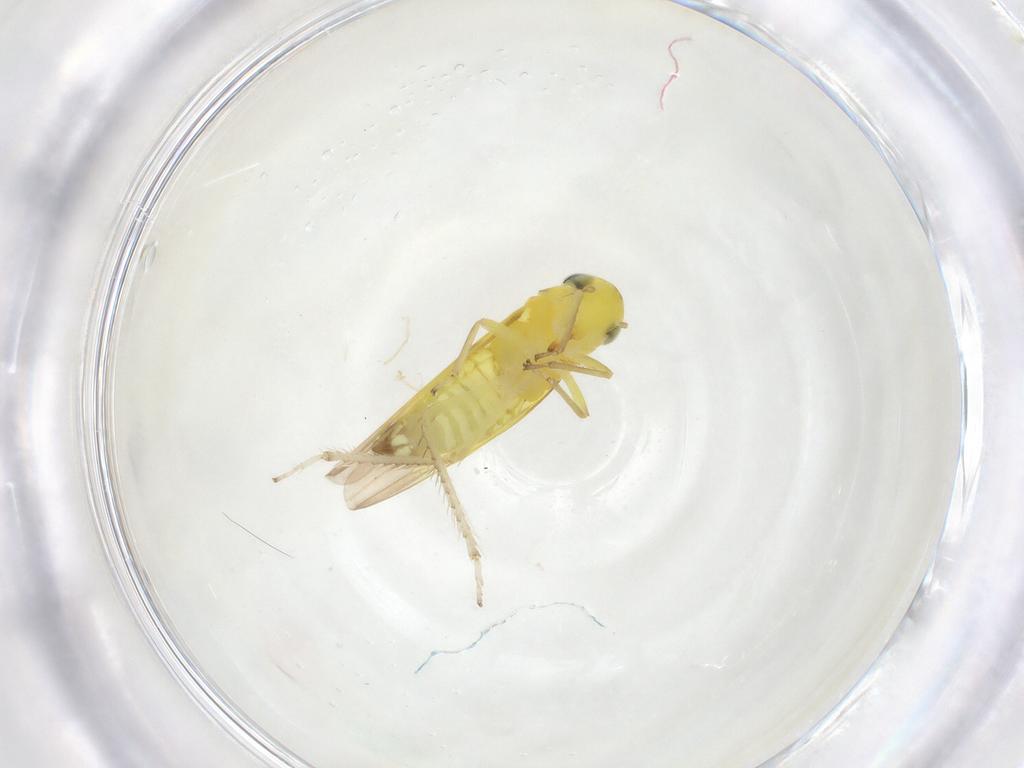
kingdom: Animalia
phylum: Arthropoda
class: Insecta
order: Hemiptera
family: Cicadellidae
